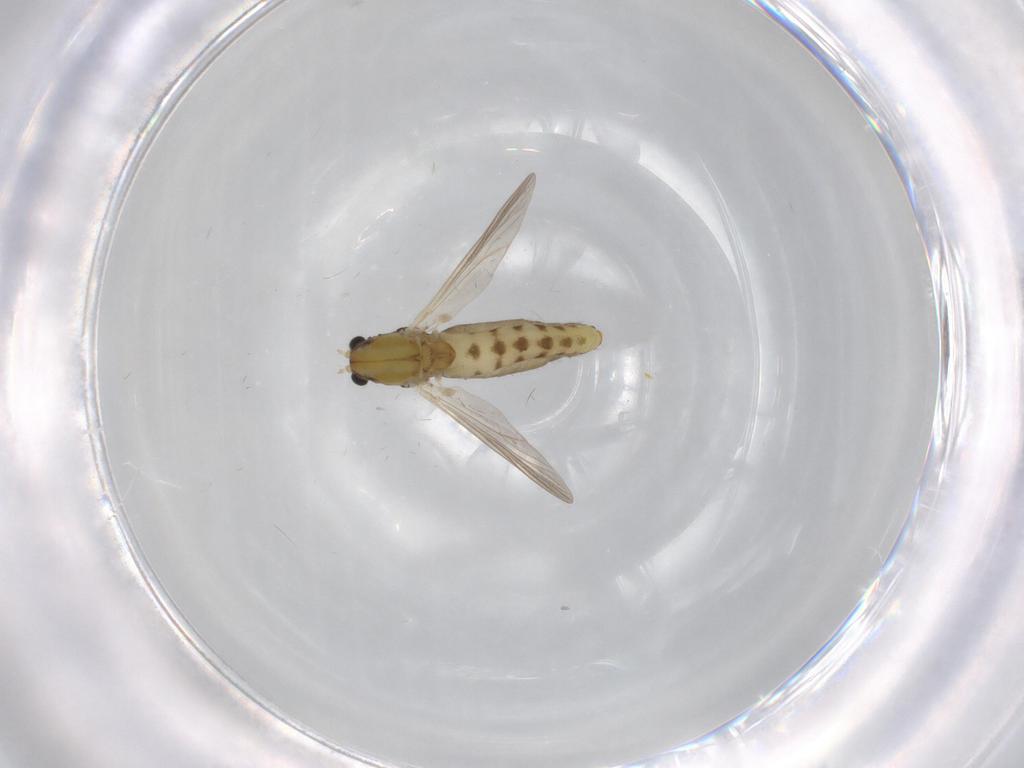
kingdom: Animalia
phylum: Arthropoda
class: Insecta
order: Diptera
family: Chironomidae
